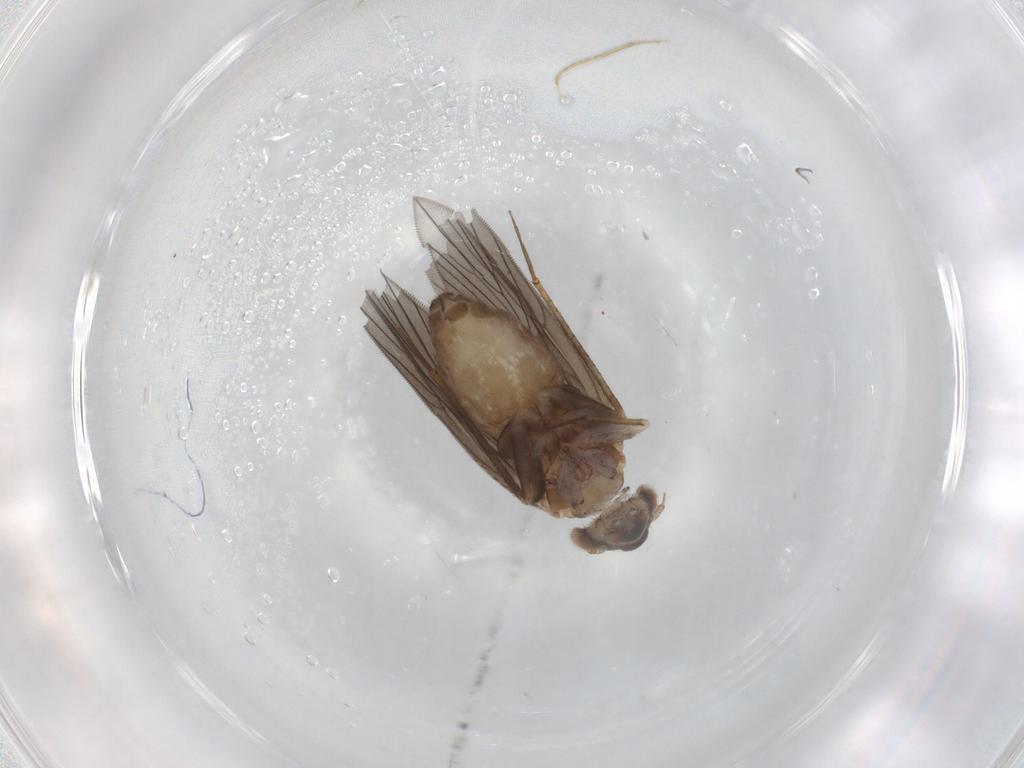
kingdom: Animalia
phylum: Arthropoda
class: Insecta
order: Psocodea
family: Lepidopsocidae
